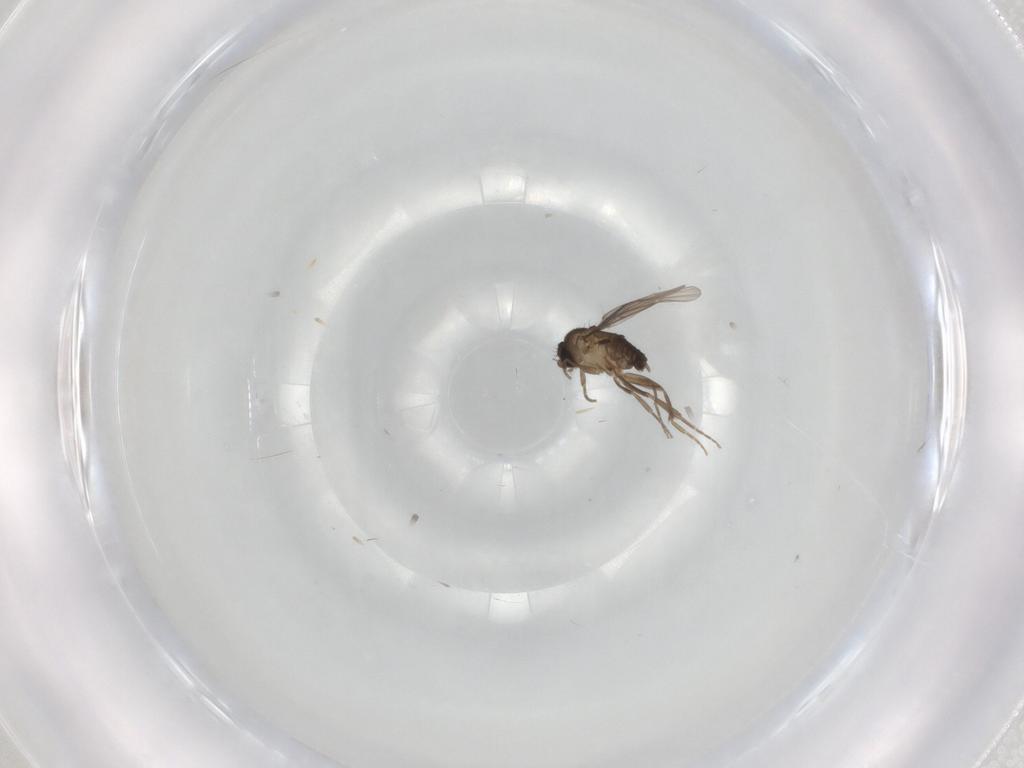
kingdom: Animalia
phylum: Arthropoda
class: Insecta
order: Diptera
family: Phoridae
